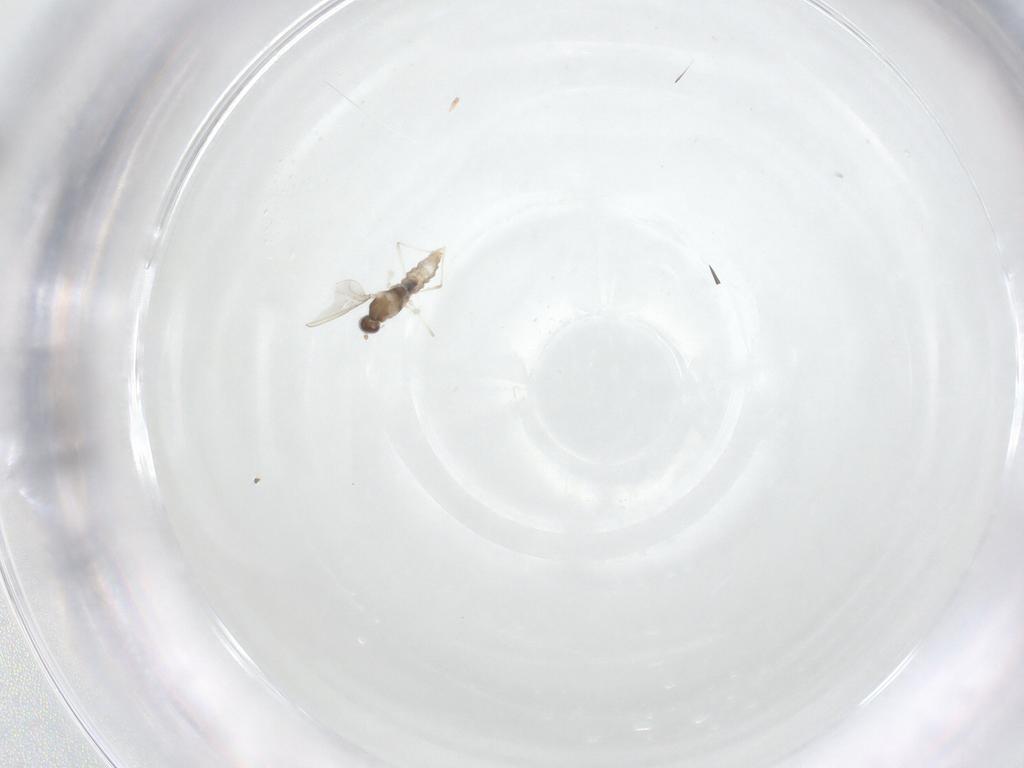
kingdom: Animalia
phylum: Arthropoda
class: Insecta
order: Diptera
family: Cecidomyiidae
